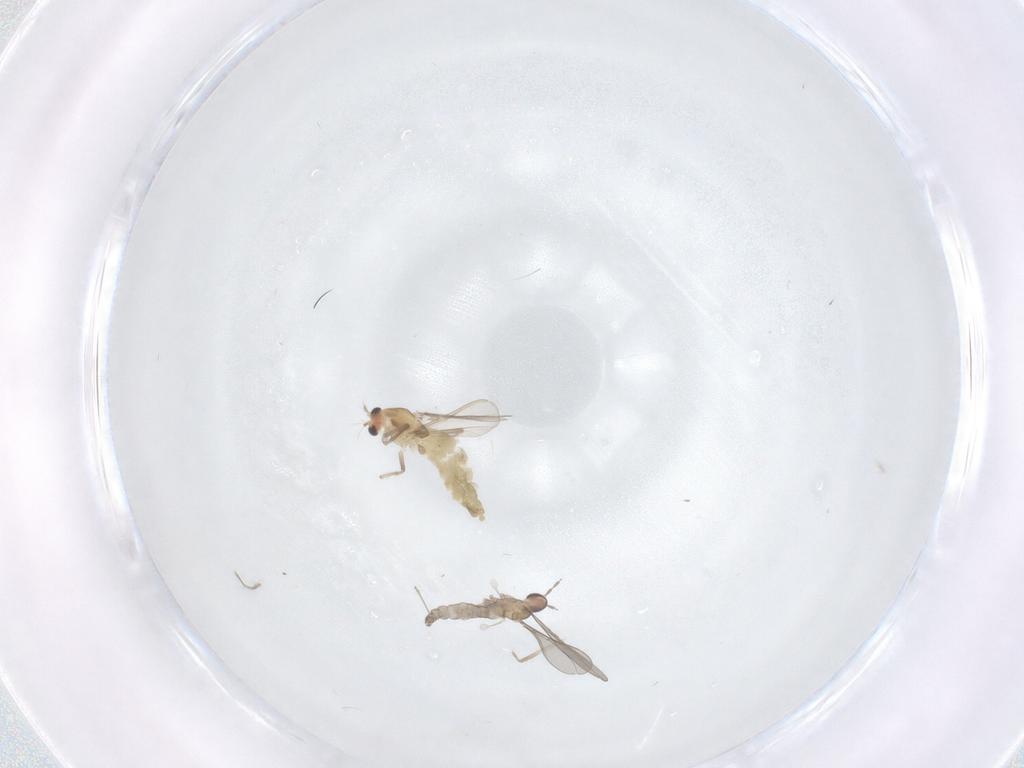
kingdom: Animalia
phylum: Arthropoda
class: Insecta
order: Diptera
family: Chironomidae
